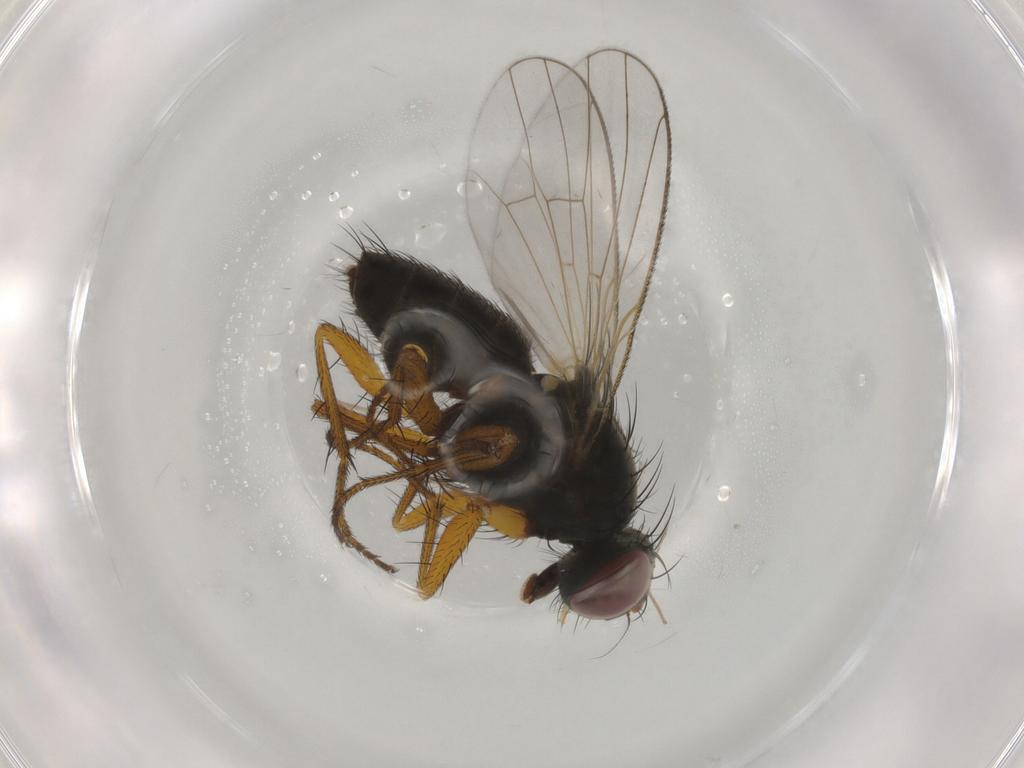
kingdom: Animalia
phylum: Arthropoda
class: Insecta
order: Diptera
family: Muscidae
